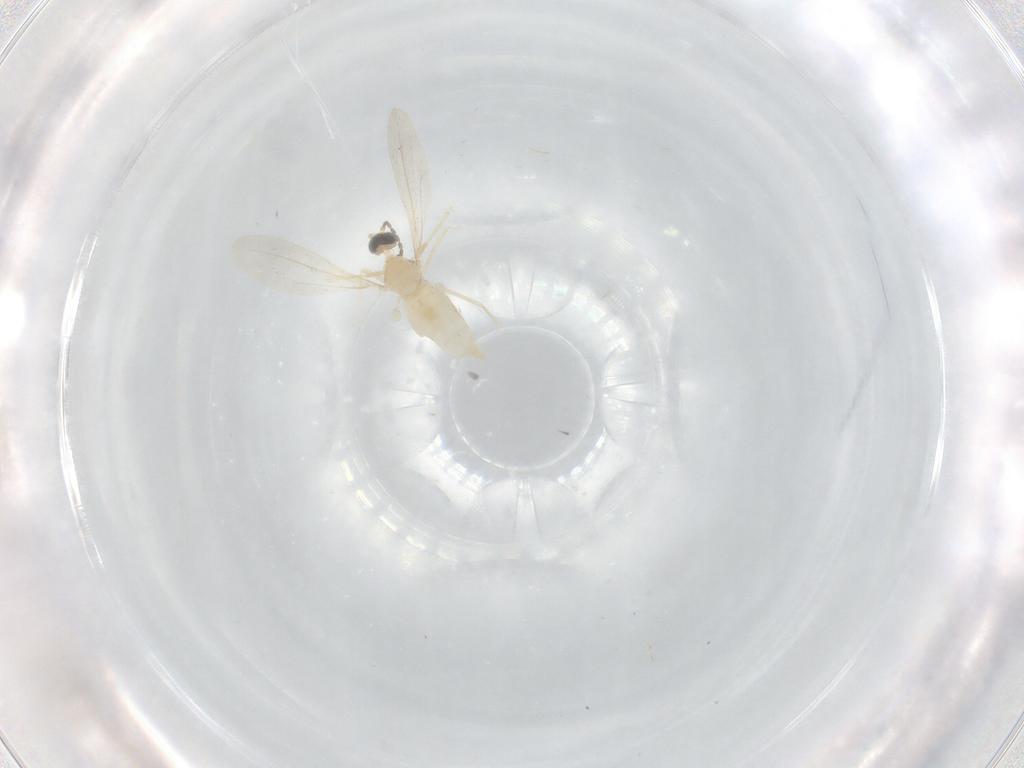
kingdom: Animalia
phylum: Arthropoda
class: Insecta
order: Diptera
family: Cecidomyiidae
